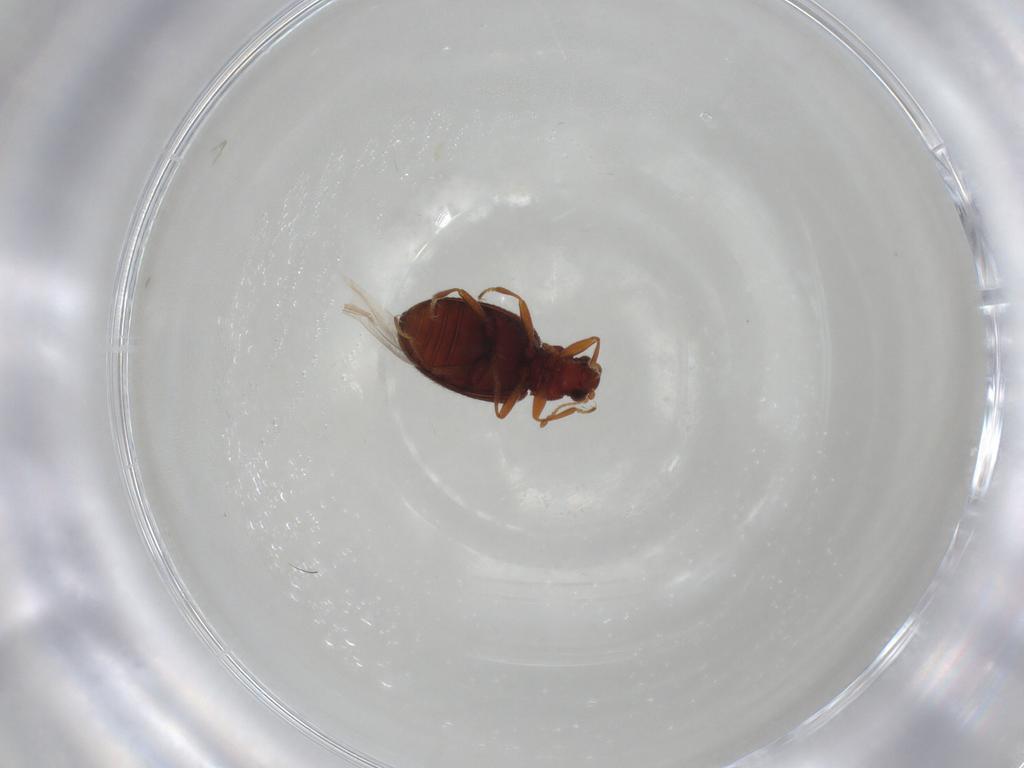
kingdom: Animalia
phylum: Arthropoda
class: Insecta
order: Coleoptera
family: Latridiidae
